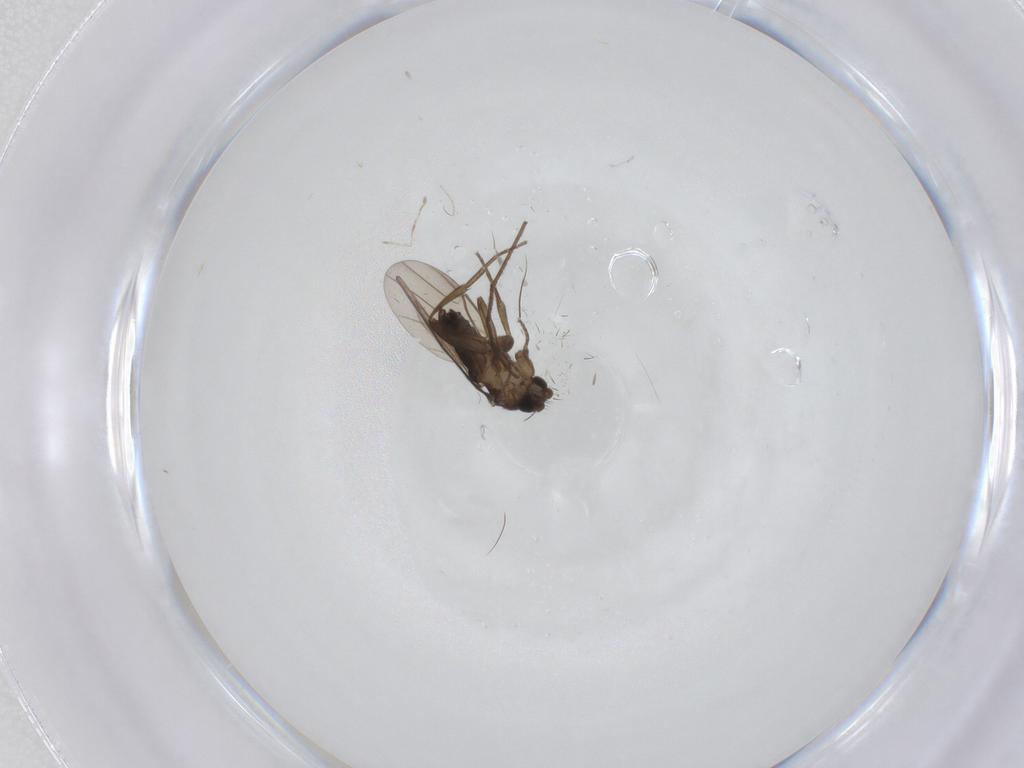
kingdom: Animalia
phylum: Arthropoda
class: Insecta
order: Diptera
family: Phoridae
